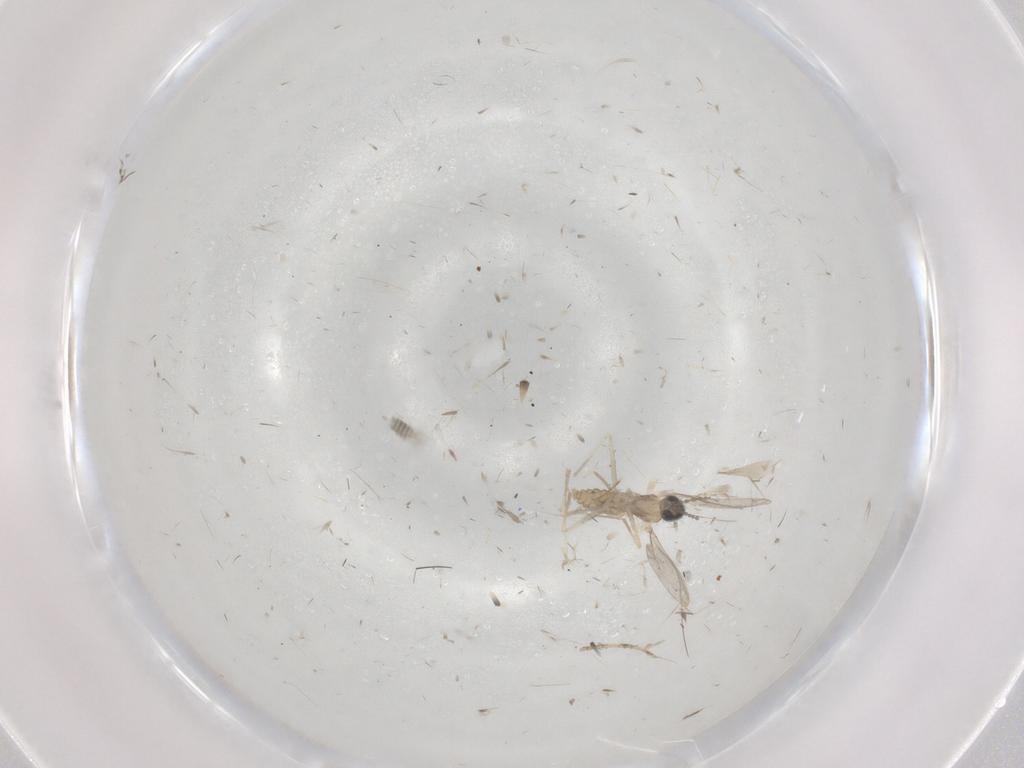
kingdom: Animalia
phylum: Arthropoda
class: Insecta
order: Diptera
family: Cecidomyiidae
